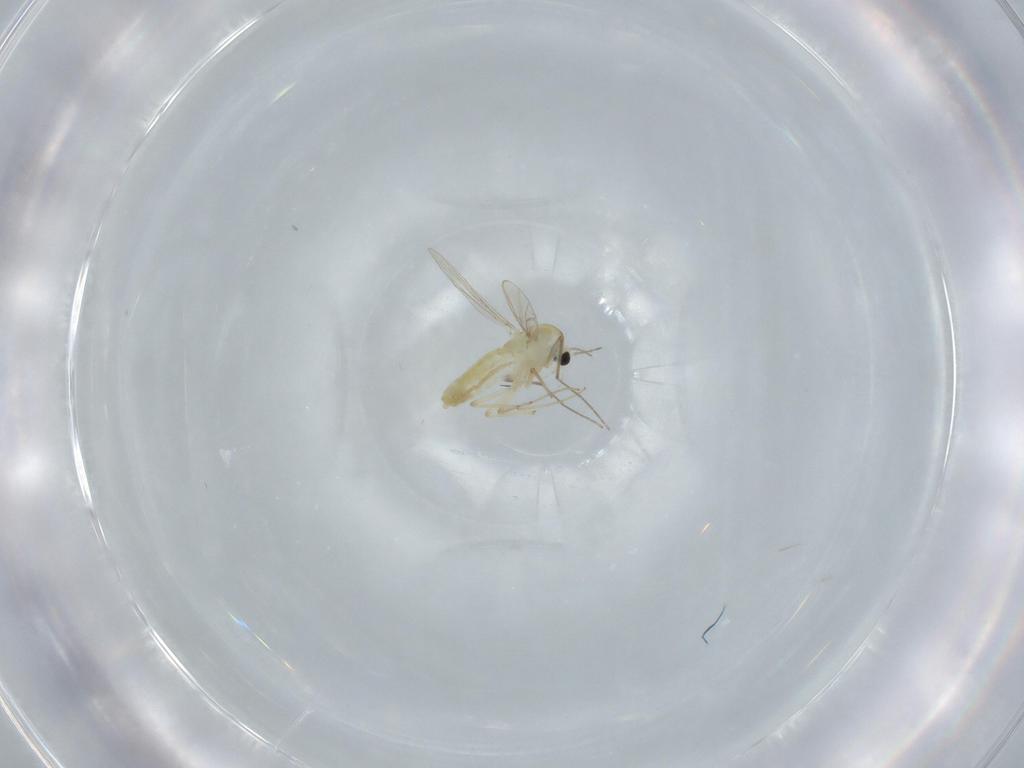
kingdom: Animalia
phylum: Arthropoda
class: Insecta
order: Diptera
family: Chironomidae
